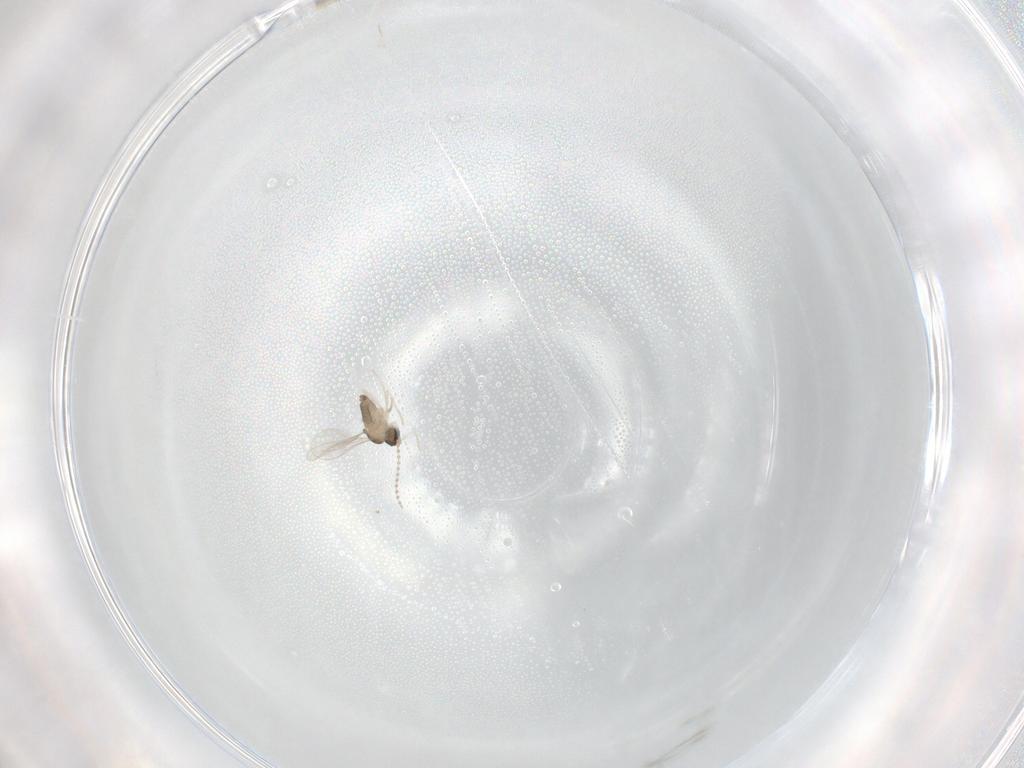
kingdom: Animalia
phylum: Arthropoda
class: Insecta
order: Diptera
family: Cecidomyiidae
